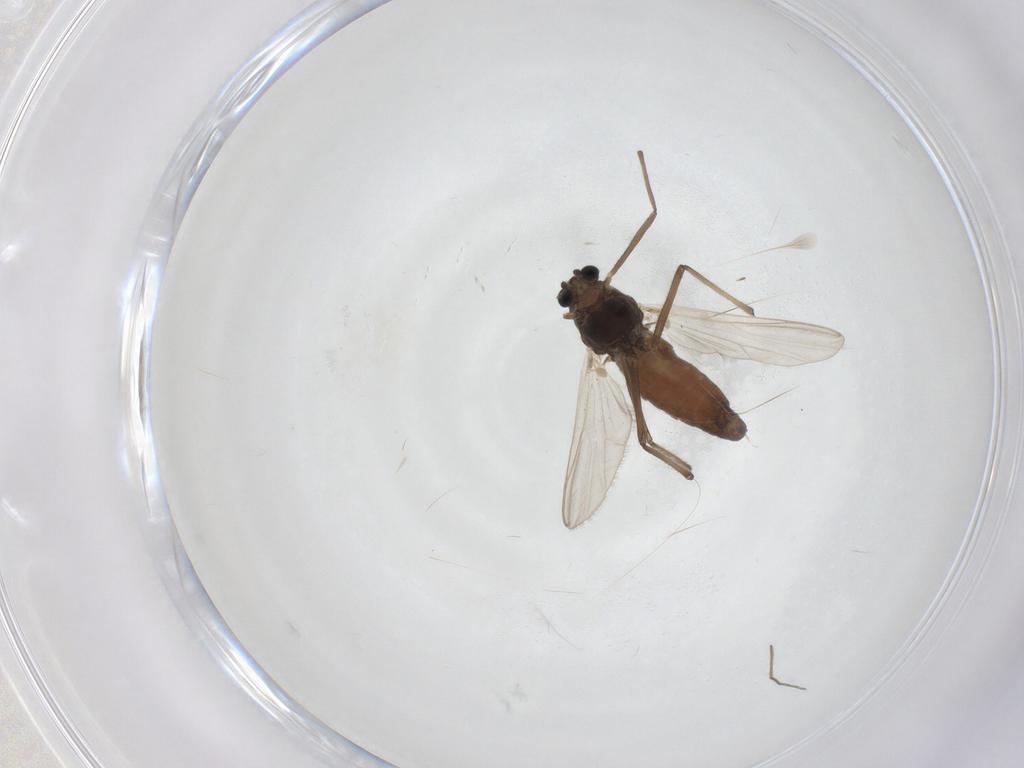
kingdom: Animalia
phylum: Arthropoda
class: Insecta
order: Diptera
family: Chironomidae
